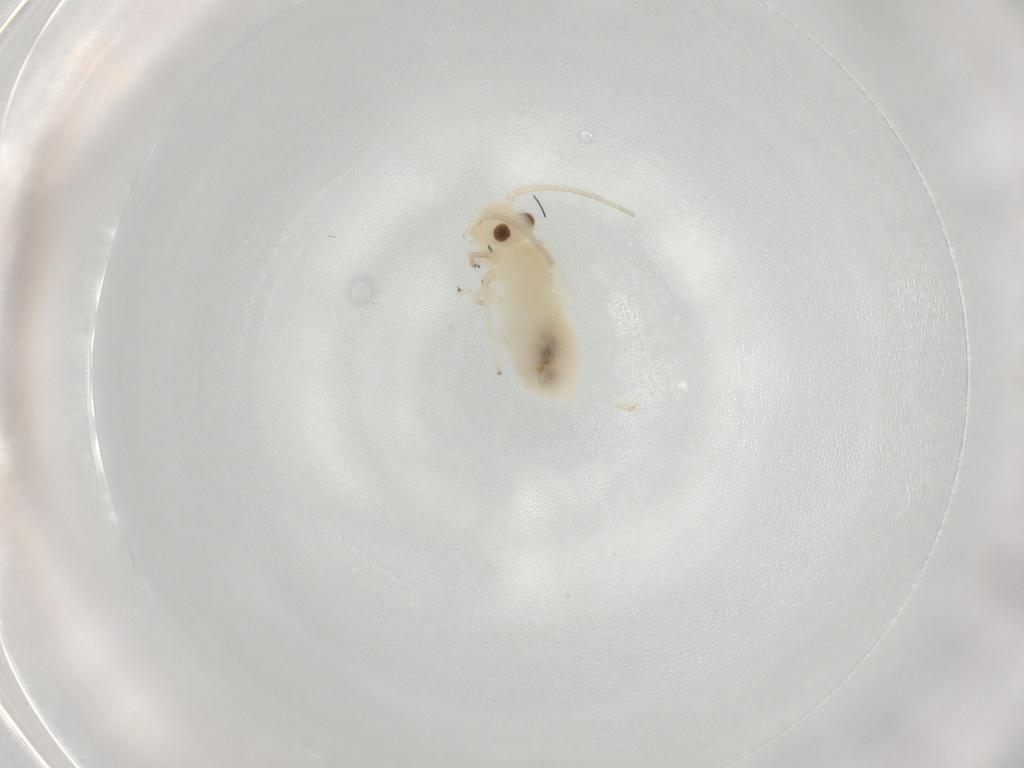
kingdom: Animalia
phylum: Arthropoda
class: Insecta
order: Psocodea
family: Caeciliusidae
